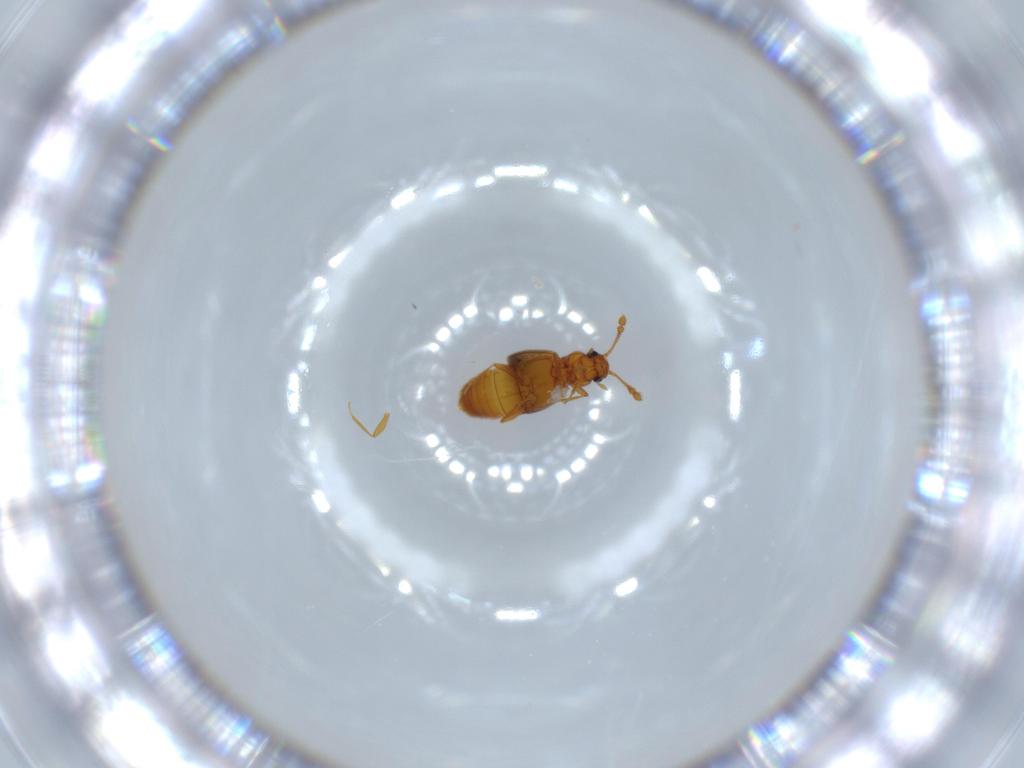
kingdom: Animalia
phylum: Arthropoda
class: Insecta
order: Coleoptera
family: Staphylinidae
